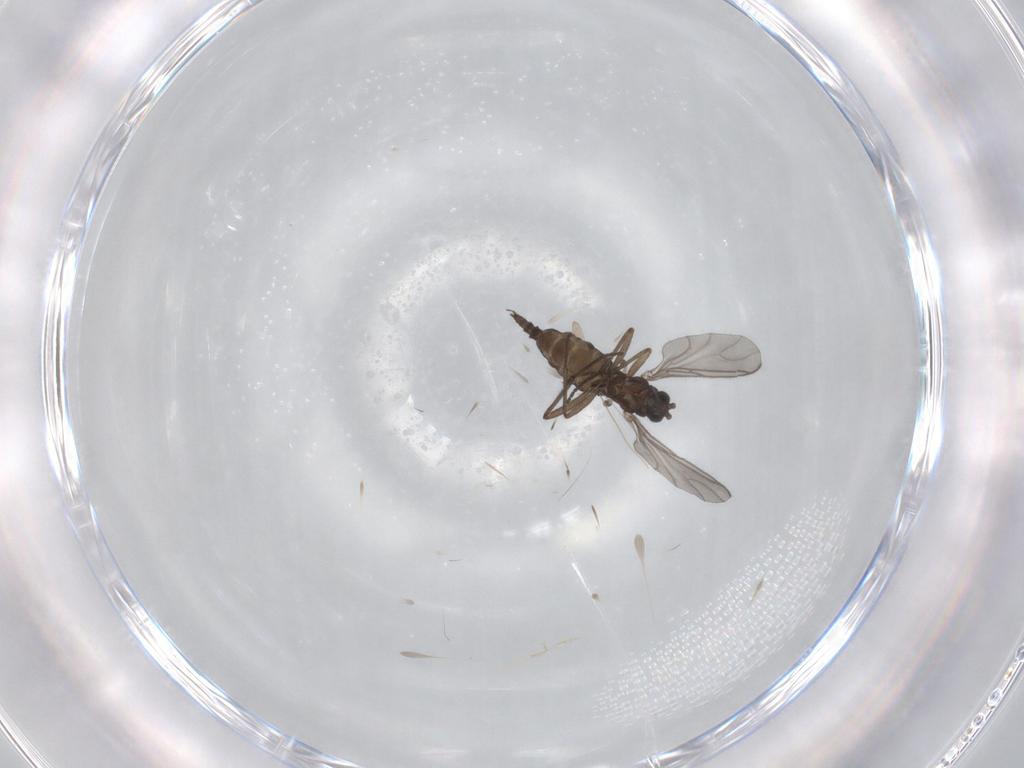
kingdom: Animalia
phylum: Arthropoda
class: Insecta
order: Diptera
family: Sciaridae
